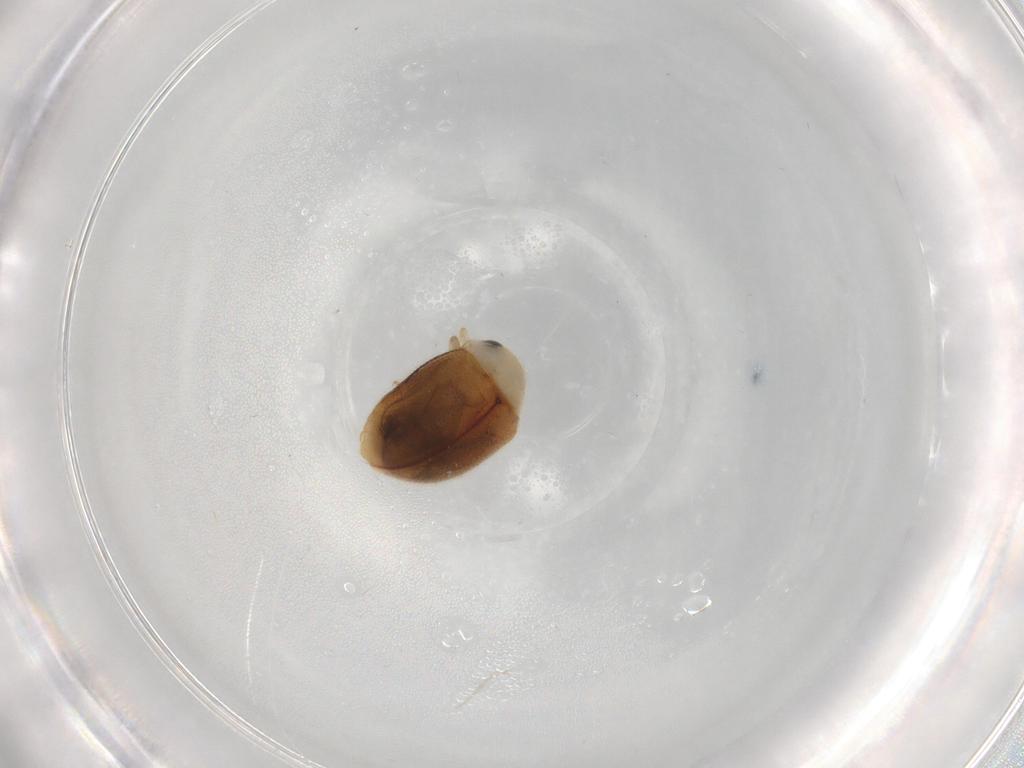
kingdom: Animalia
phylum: Arthropoda
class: Insecta
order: Coleoptera
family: Coccinellidae
